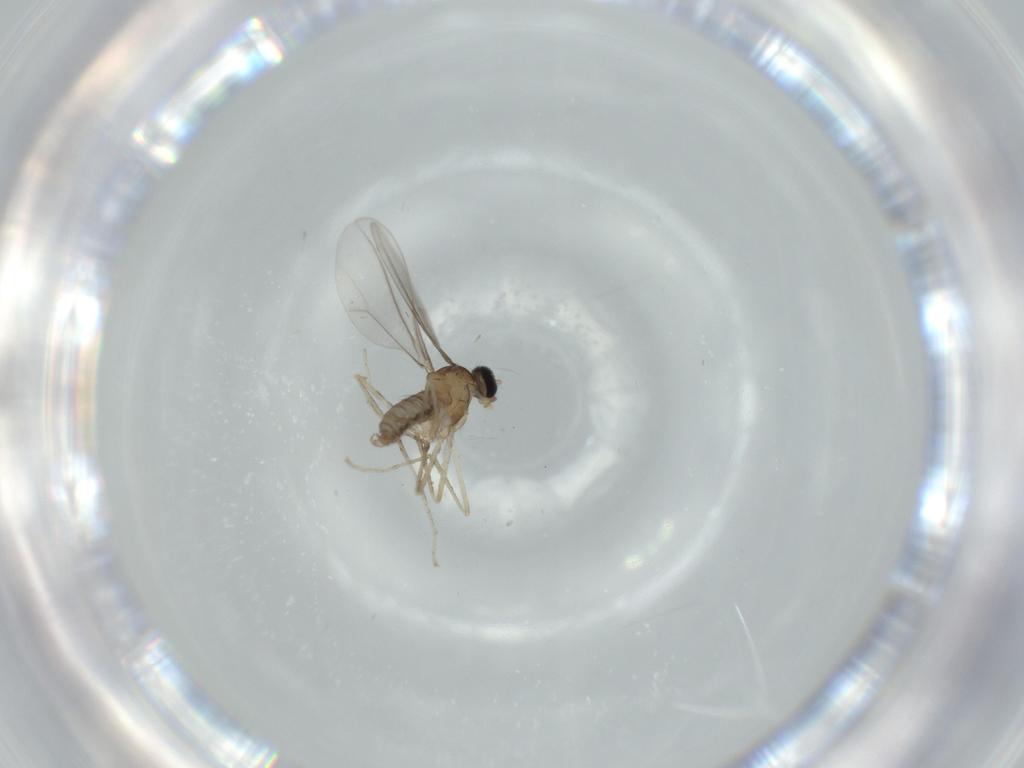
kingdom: Animalia
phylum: Arthropoda
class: Insecta
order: Diptera
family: Cecidomyiidae
